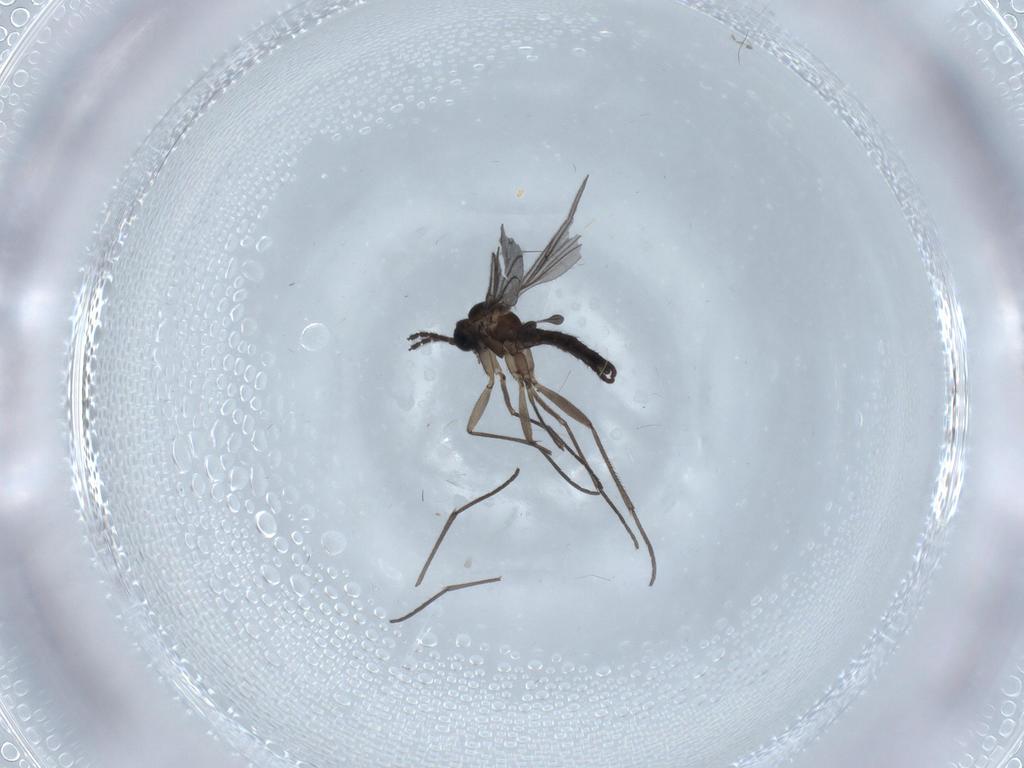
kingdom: Animalia
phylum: Arthropoda
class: Insecta
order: Diptera
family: Sciaridae
